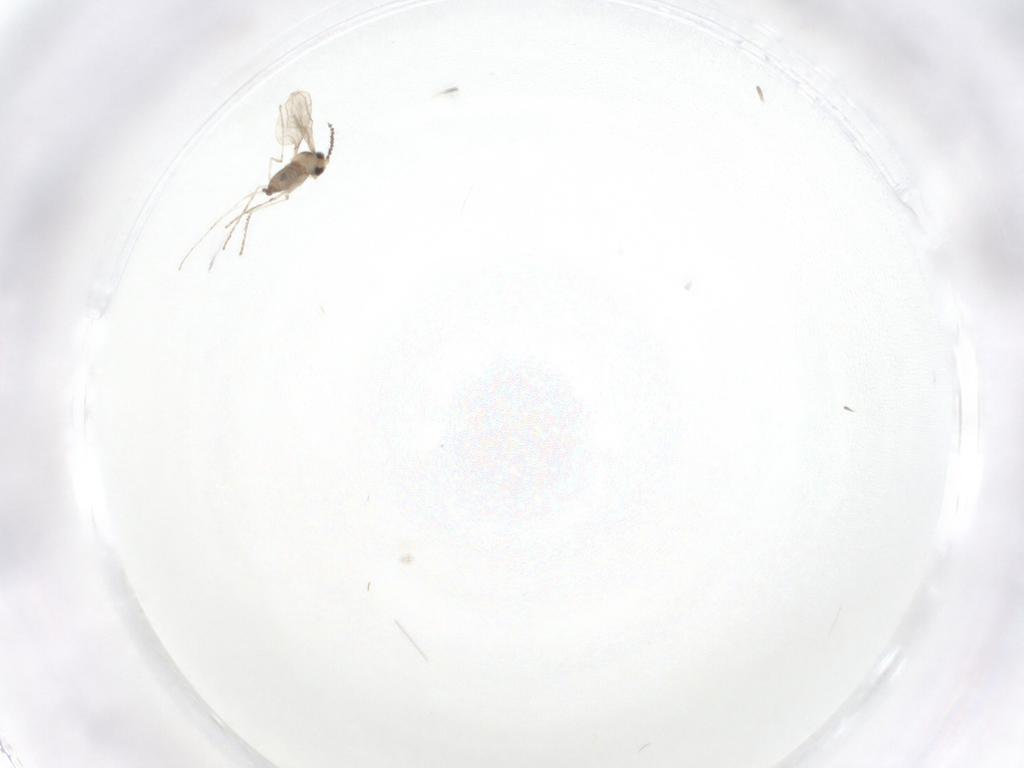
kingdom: Animalia
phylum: Arthropoda
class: Insecta
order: Diptera
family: Cecidomyiidae
